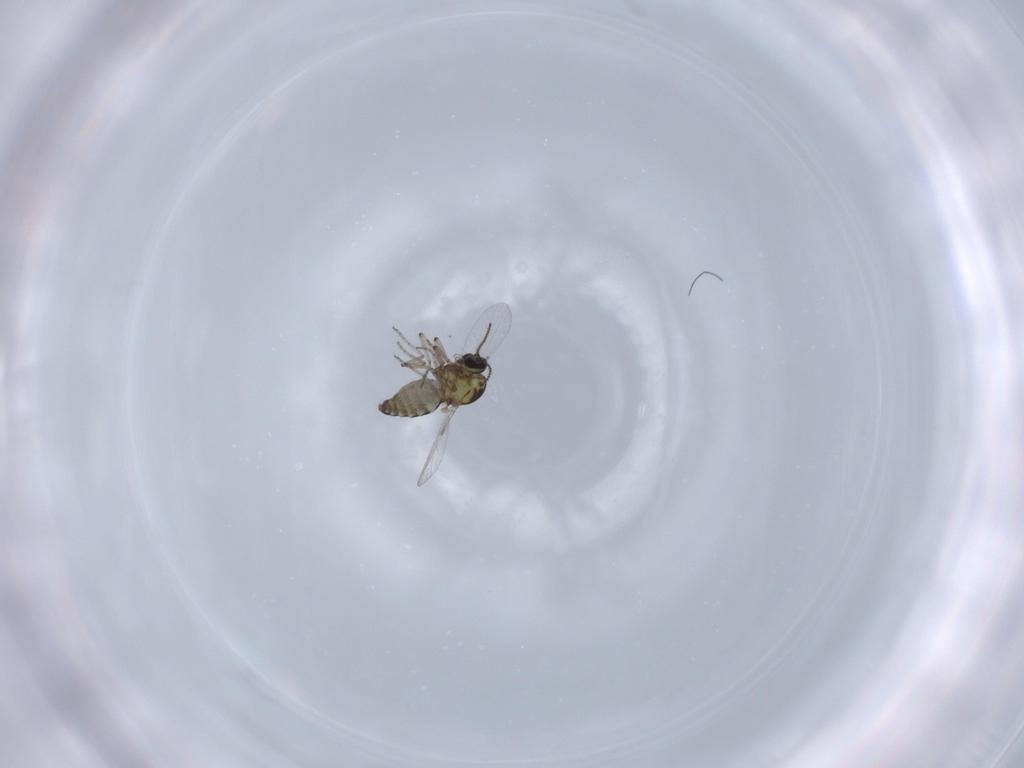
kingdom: Animalia
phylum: Arthropoda
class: Insecta
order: Diptera
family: Ceratopogonidae
